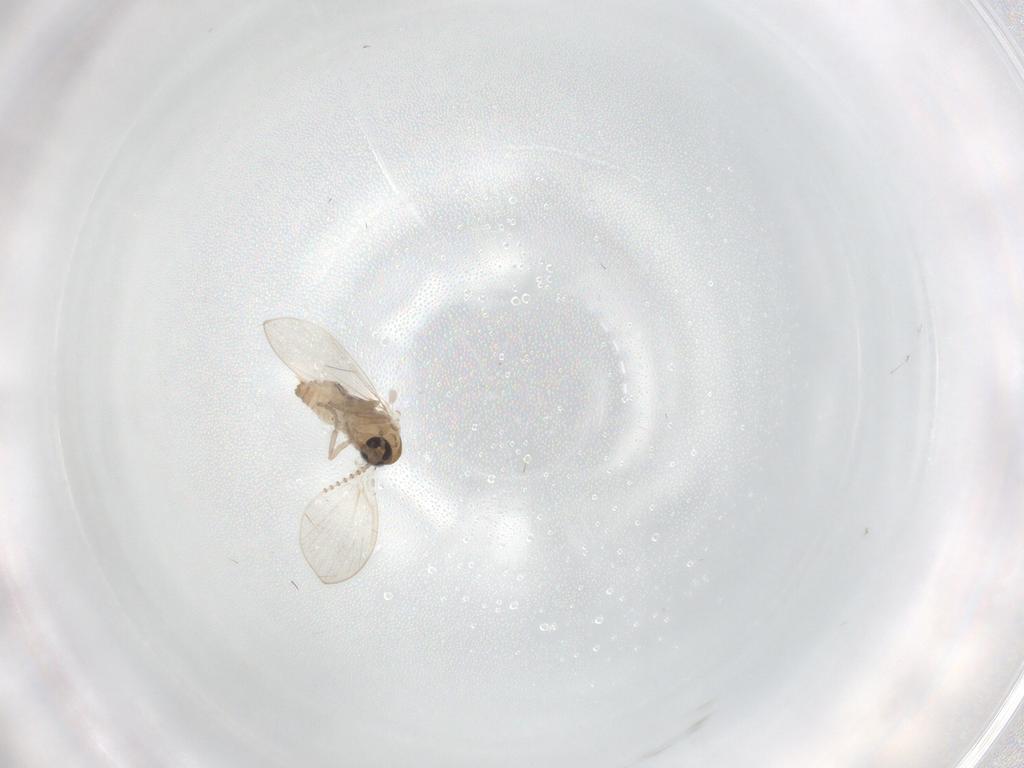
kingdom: Animalia
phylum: Arthropoda
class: Insecta
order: Diptera
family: Psychodidae
